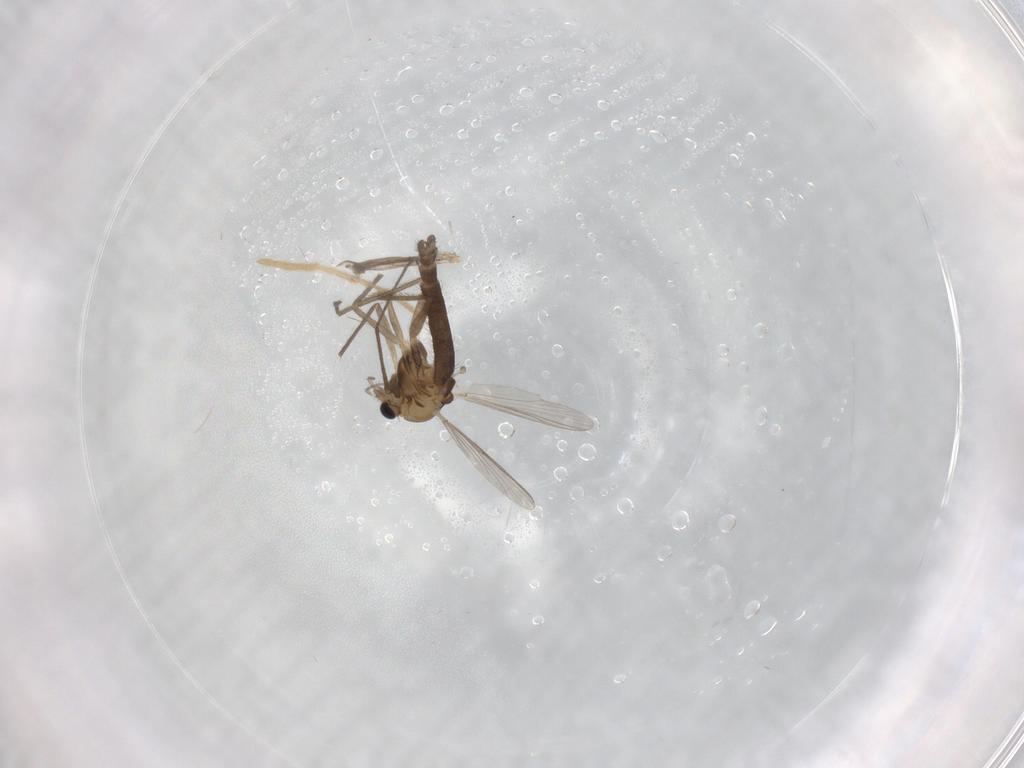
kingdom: Animalia
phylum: Arthropoda
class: Insecta
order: Diptera
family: Chironomidae
